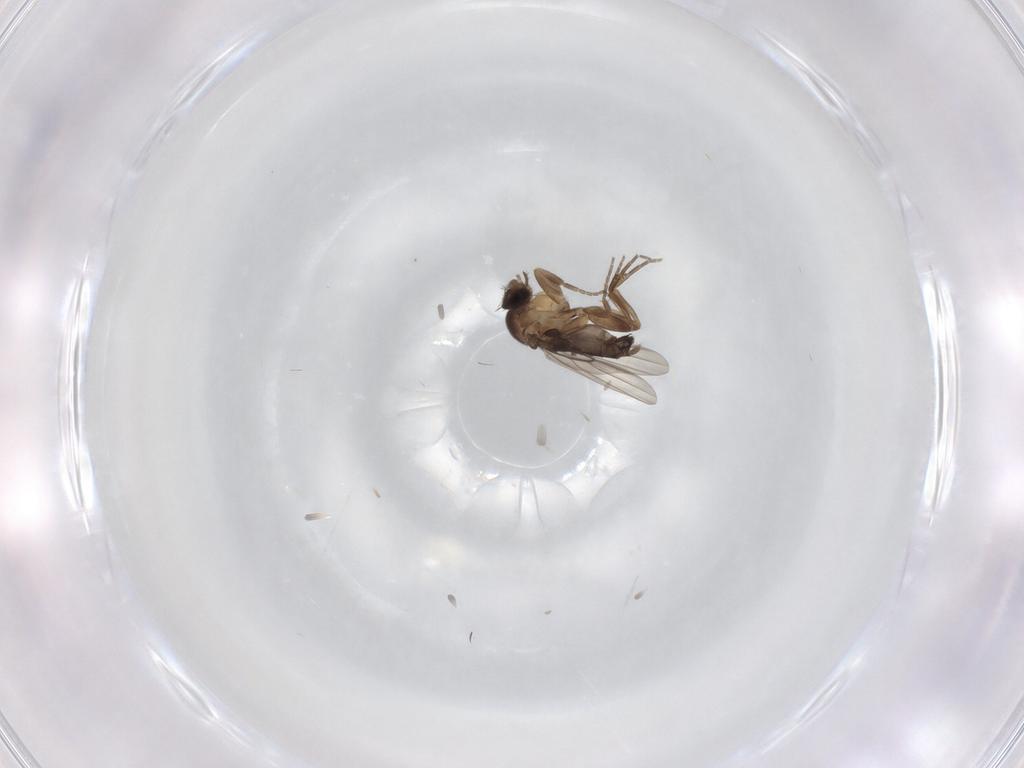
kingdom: Animalia
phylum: Arthropoda
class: Insecta
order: Diptera
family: Phoridae
